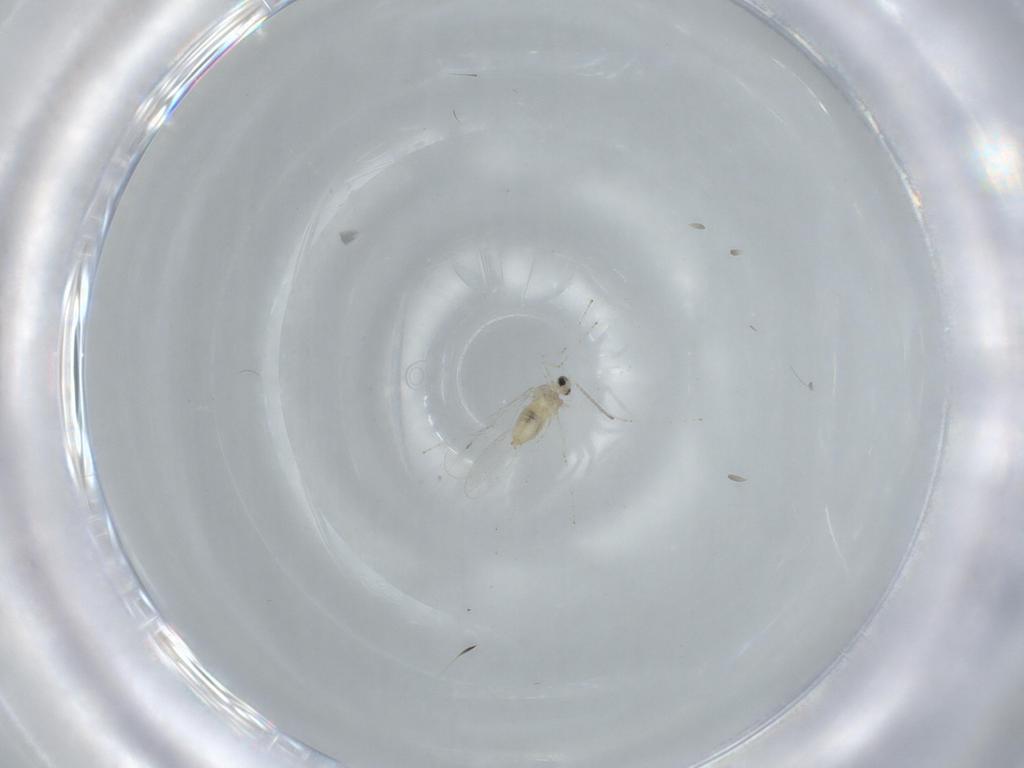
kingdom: Animalia
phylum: Arthropoda
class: Insecta
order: Diptera
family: Cecidomyiidae
